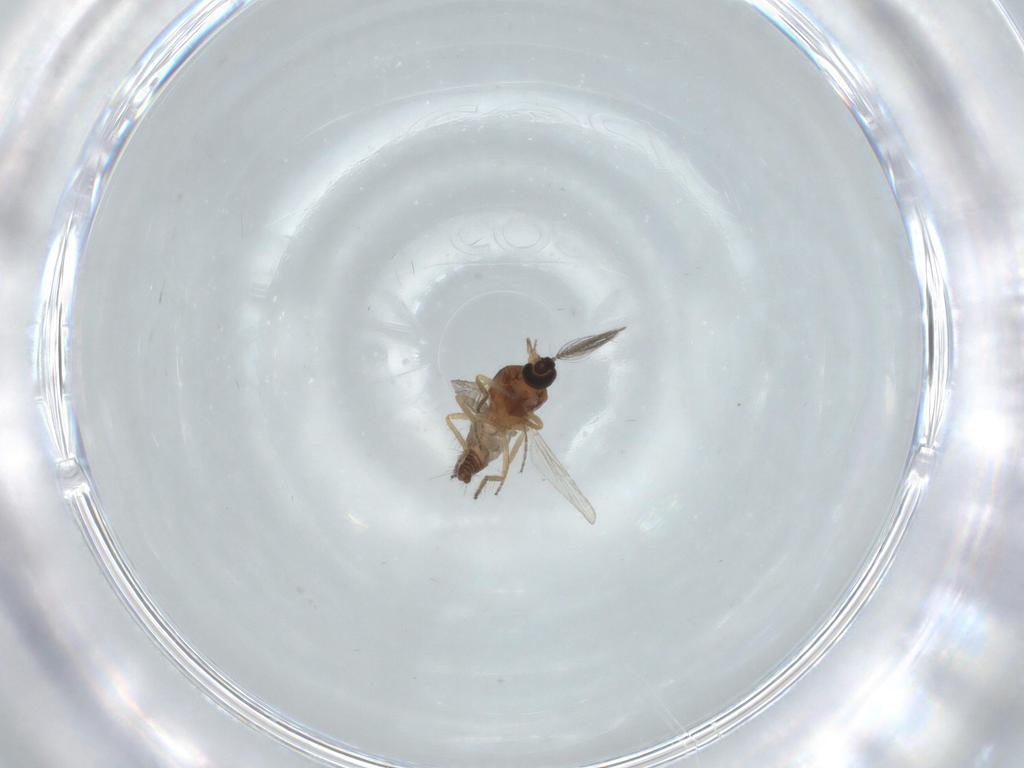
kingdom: Animalia
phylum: Arthropoda
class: Insecta
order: Diptera
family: Ceratopogonidae
